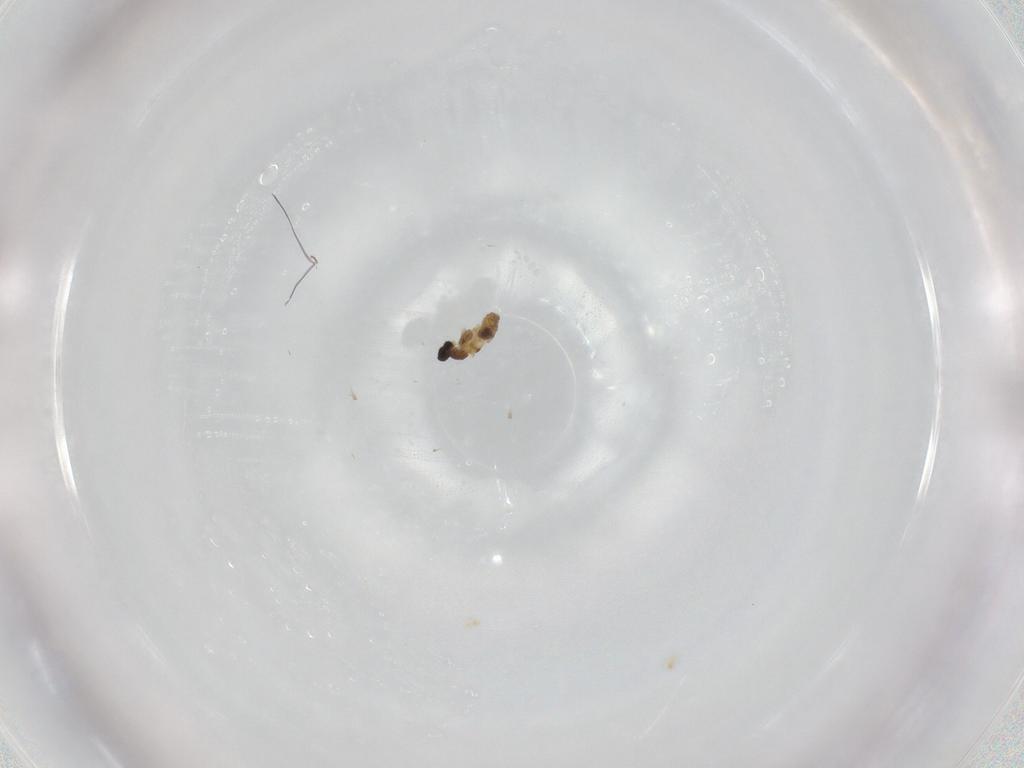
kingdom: Animalia
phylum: Arthropoda
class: Insecta
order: Diptera
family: Cecidomyiidae
